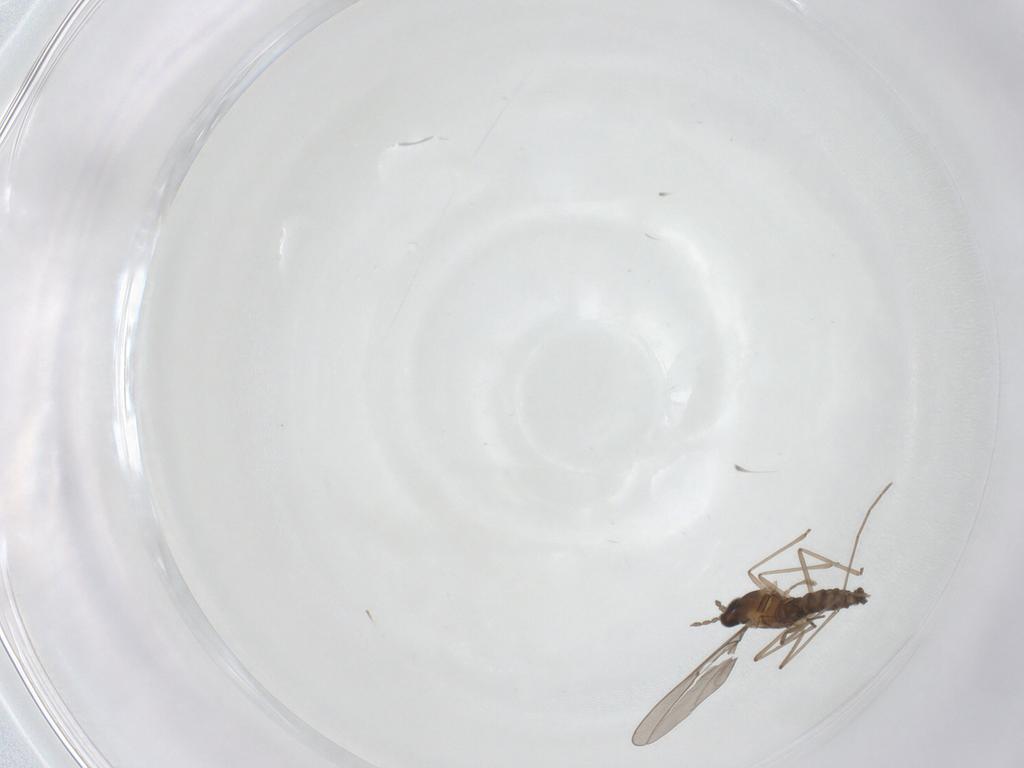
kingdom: Animalia
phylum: Arthropoda
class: Insecta
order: Diptera
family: Cecidomyiidae
